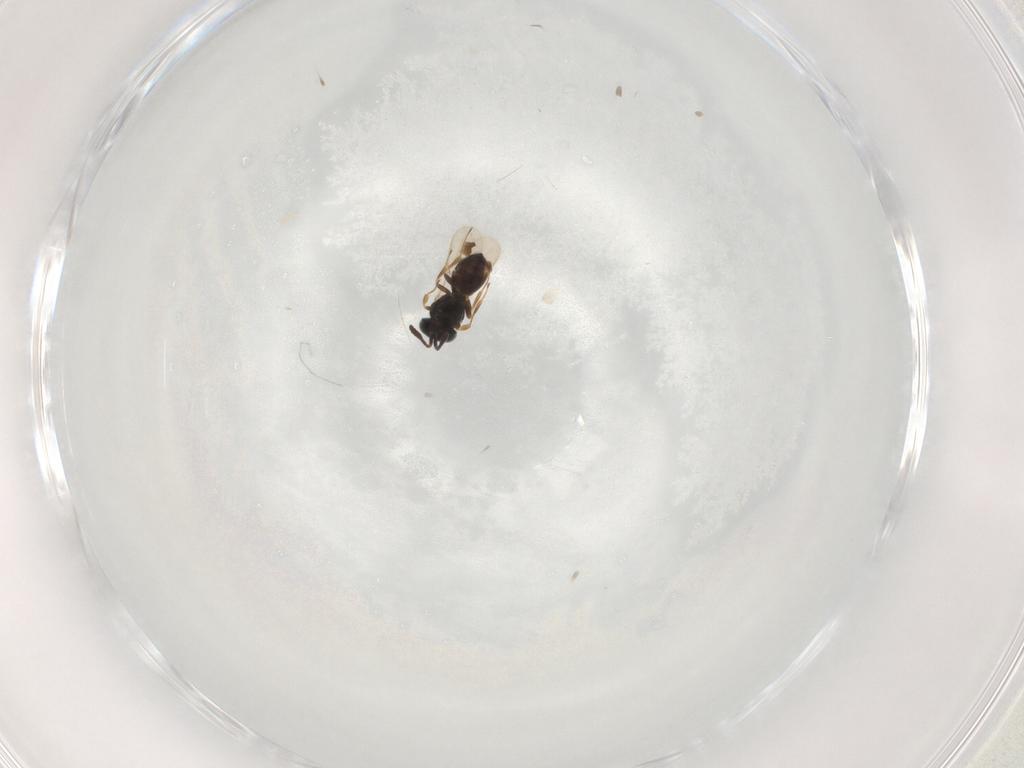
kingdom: Animalia
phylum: Arthropoda
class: Insecta
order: Hymenoptera
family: Scelionidae
